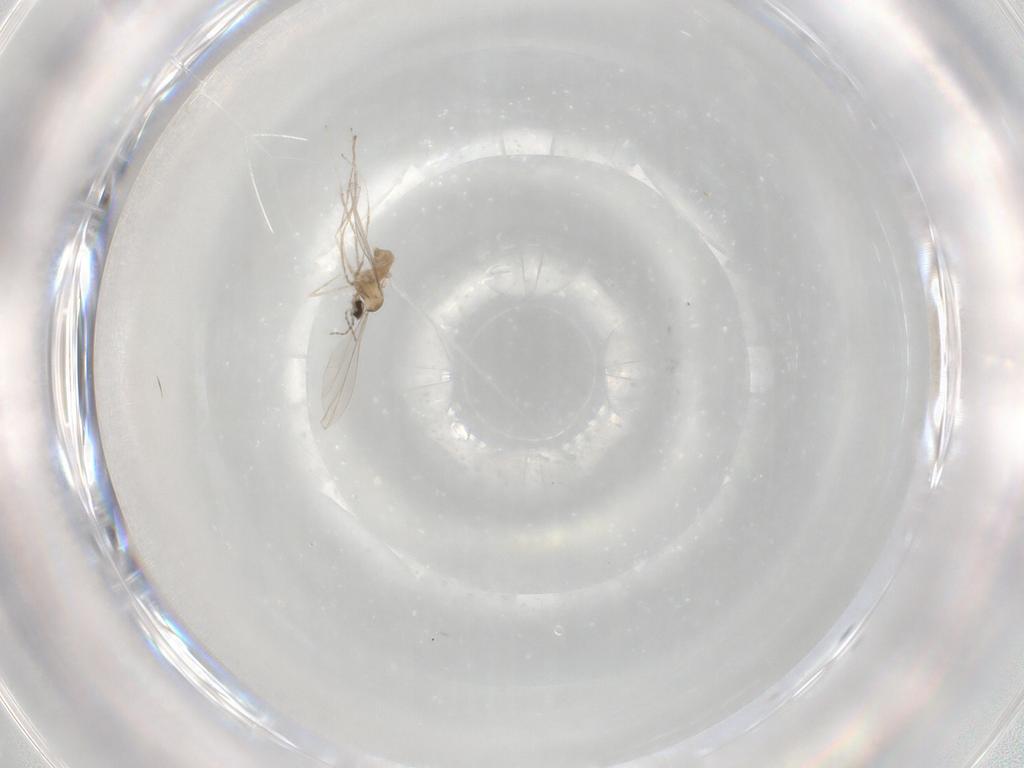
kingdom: Animalia
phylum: Arthropoda
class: Insecta
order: Diptera
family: Cecidomyiidae
